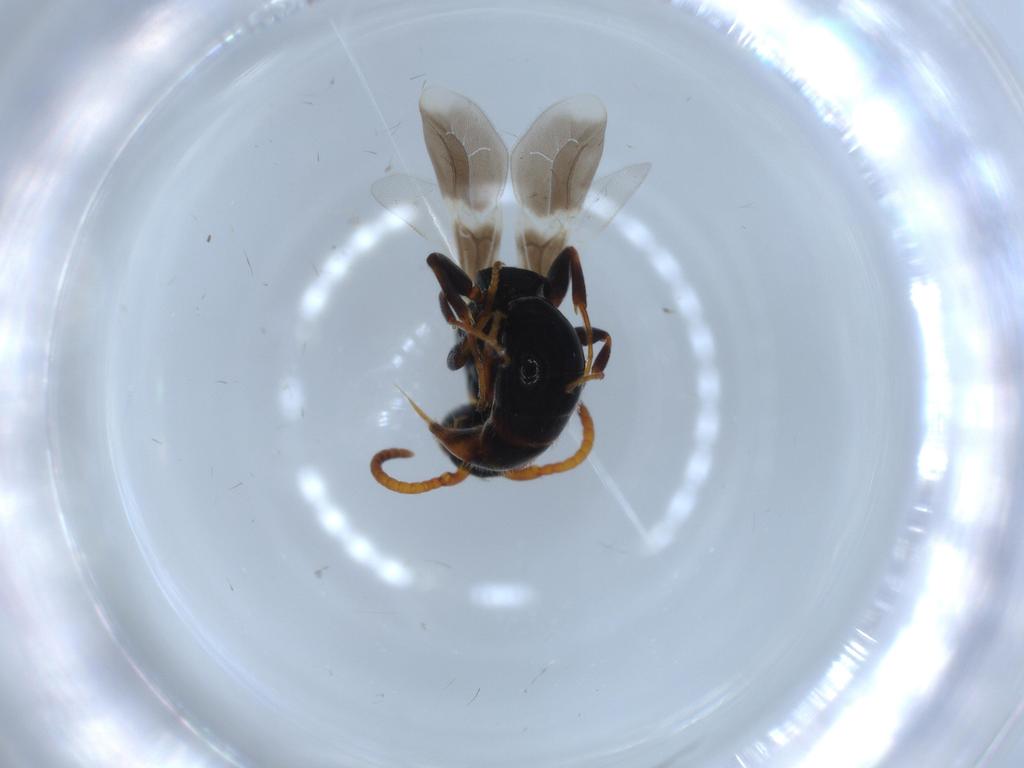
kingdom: Animalia
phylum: Arthropoda
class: Insecta
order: Hymenoptera
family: Bethylidae
